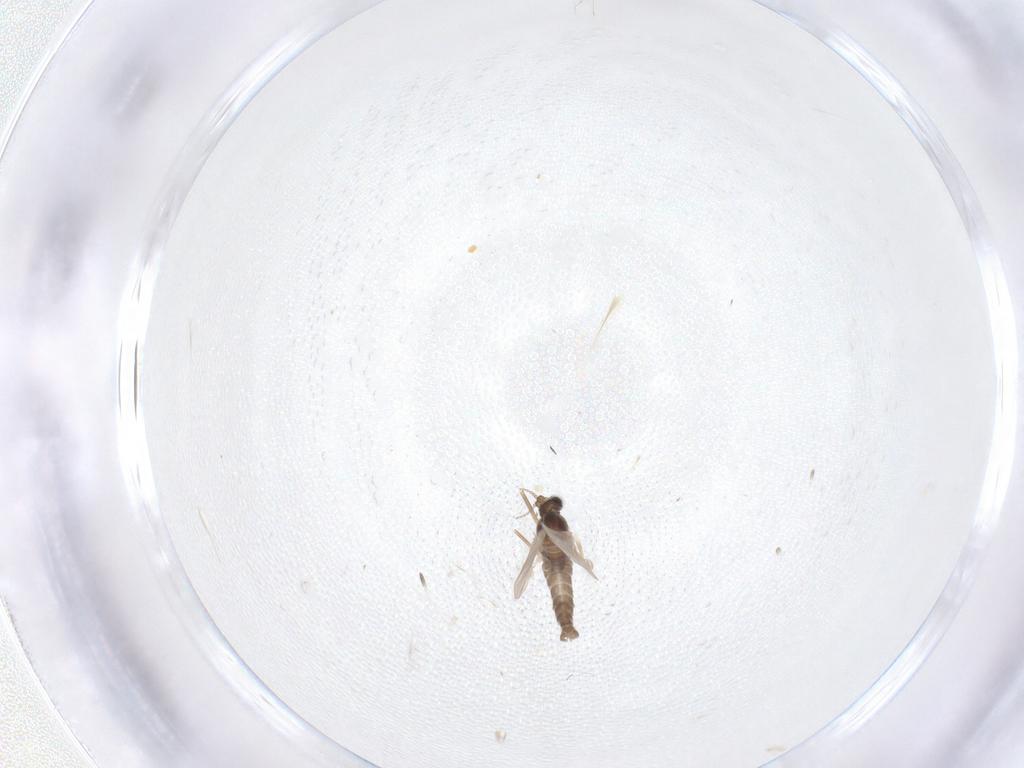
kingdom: Animalia
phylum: Arthropoda
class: Insecta
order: Diptera
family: Cecidomyiidae
